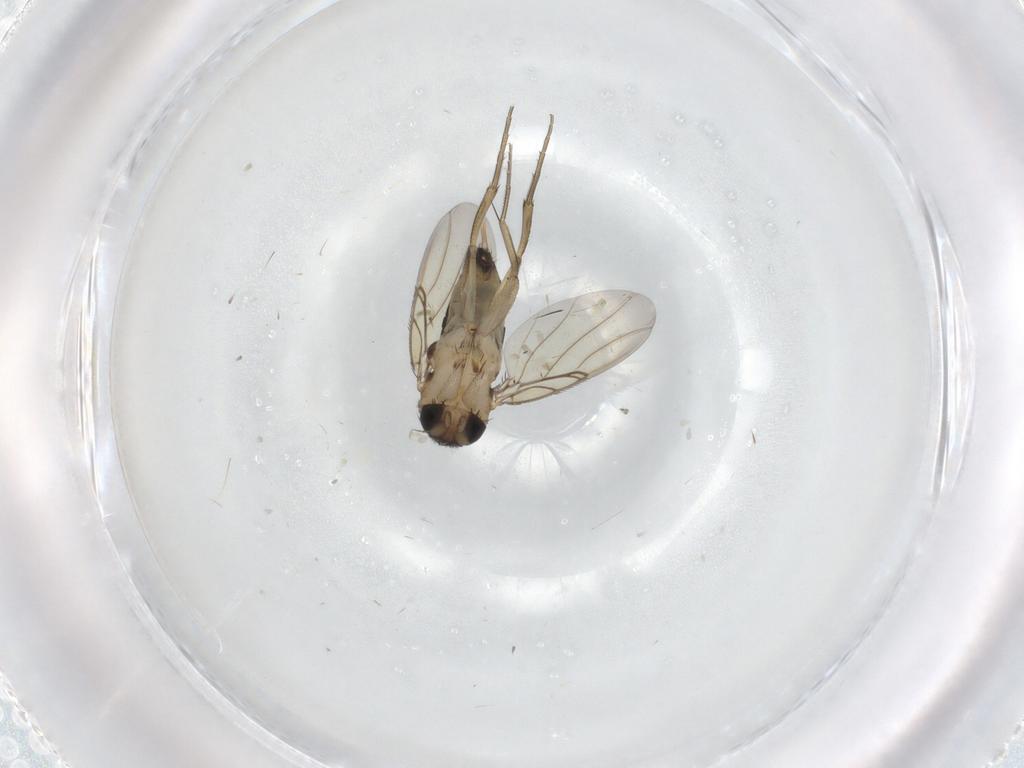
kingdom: Animalia
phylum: Arthropoda
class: Insecta
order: Diptera
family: Phoridae
